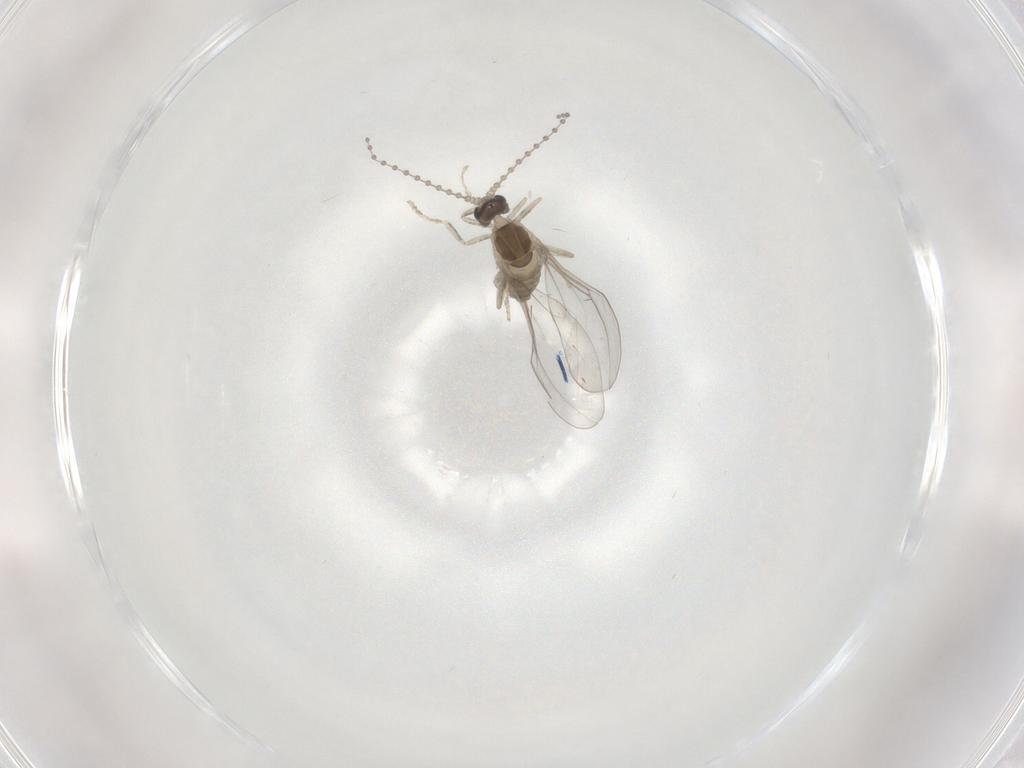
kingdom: Animalia
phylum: Arthropoda
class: Insecta
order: Diptera
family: Cecidomyiidae
